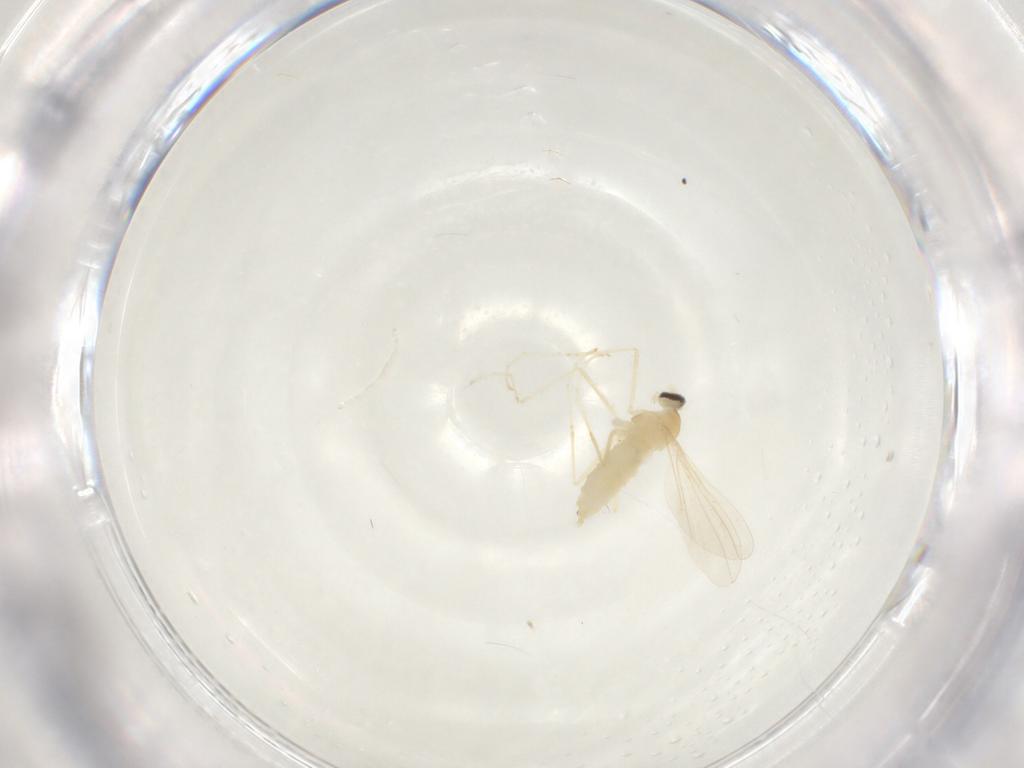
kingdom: Animalia
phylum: Arthropoda
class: Insecta
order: Diptera
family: Cecidomyiidae
